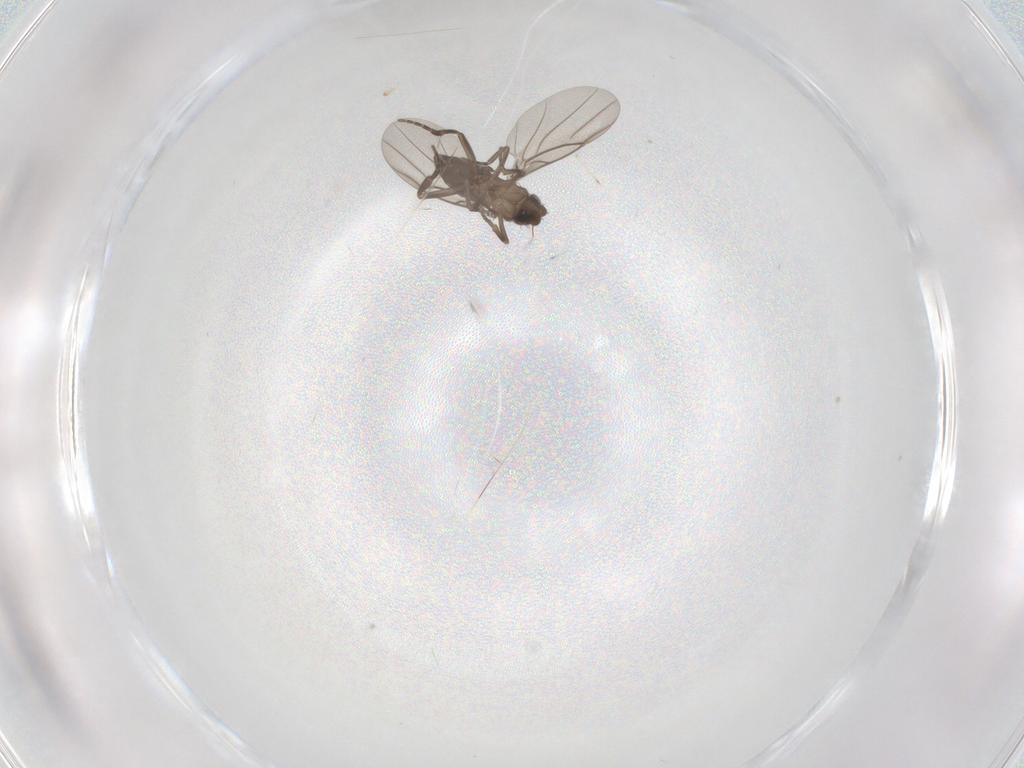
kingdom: Animalia
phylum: Arthropoda
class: Insecta
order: Diptera
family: Phoridae
